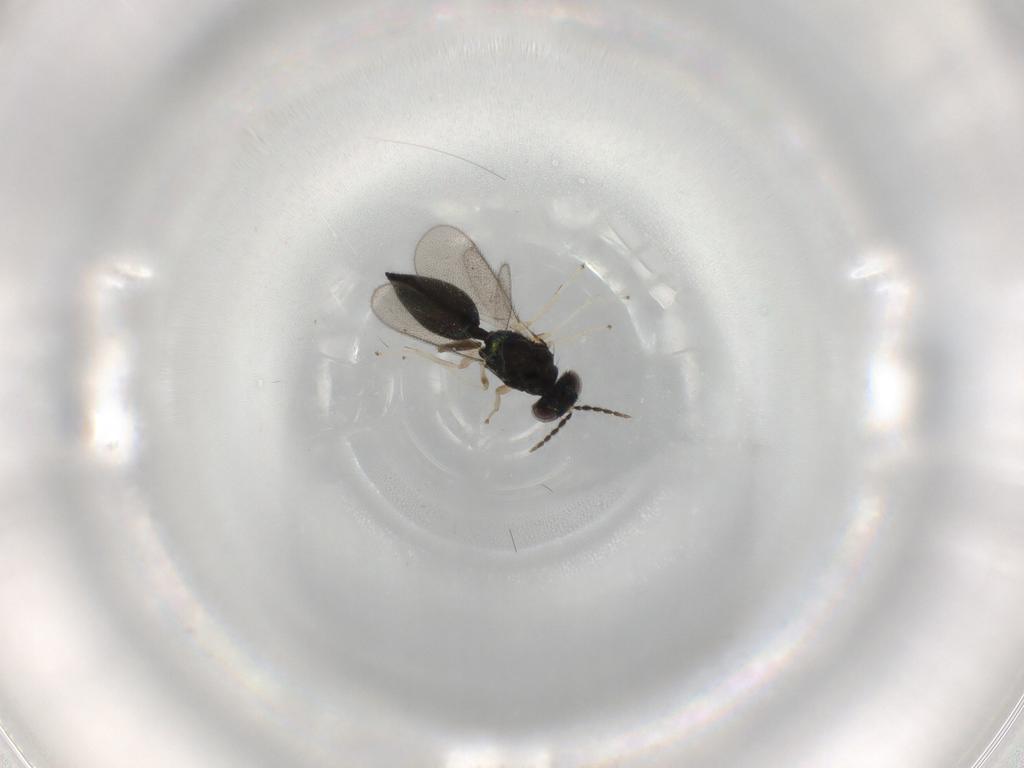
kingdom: Animalia
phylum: Arthropoda
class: Insecta
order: Hymenoptera
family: Eulophidae
